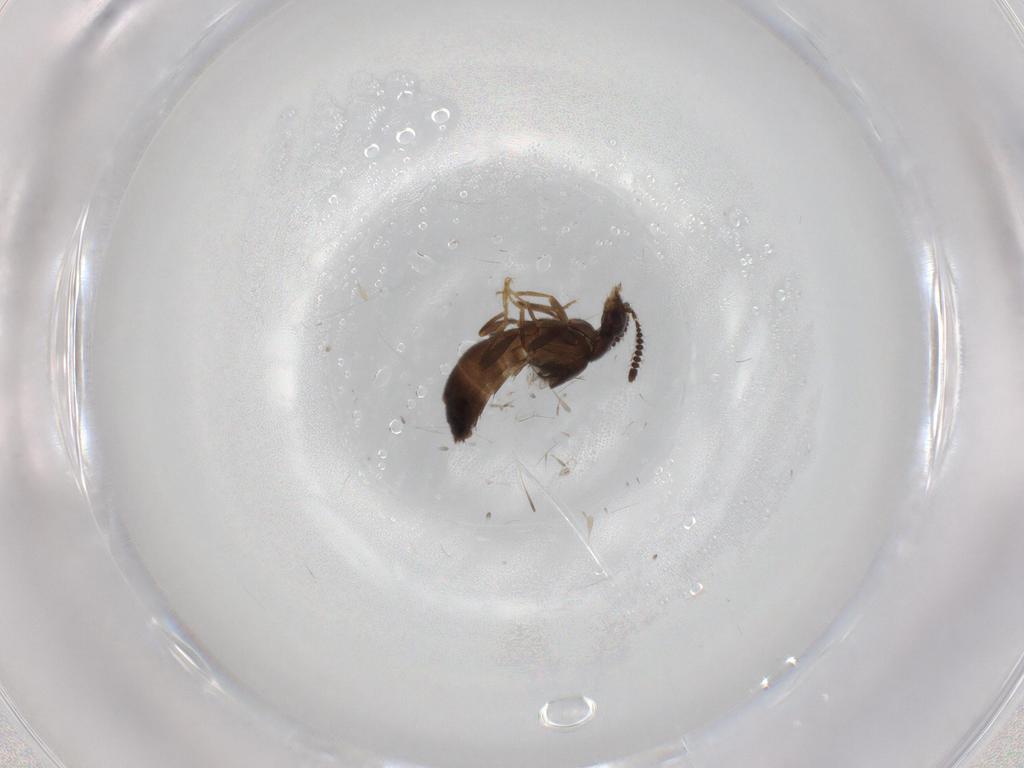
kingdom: Animalia
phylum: Arthropoda
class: Insecta
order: Coleoptera
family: Staphylinidae
